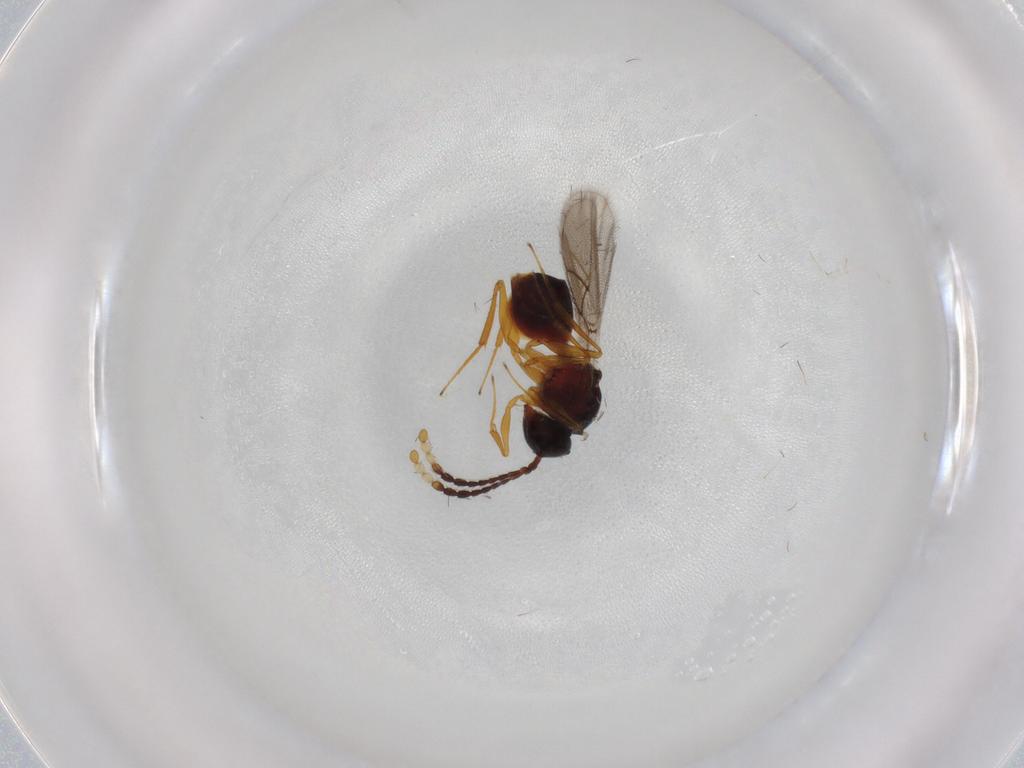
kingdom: Animalia
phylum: Arthropoda
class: Insecta
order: Hymenoptera
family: Figitidae
